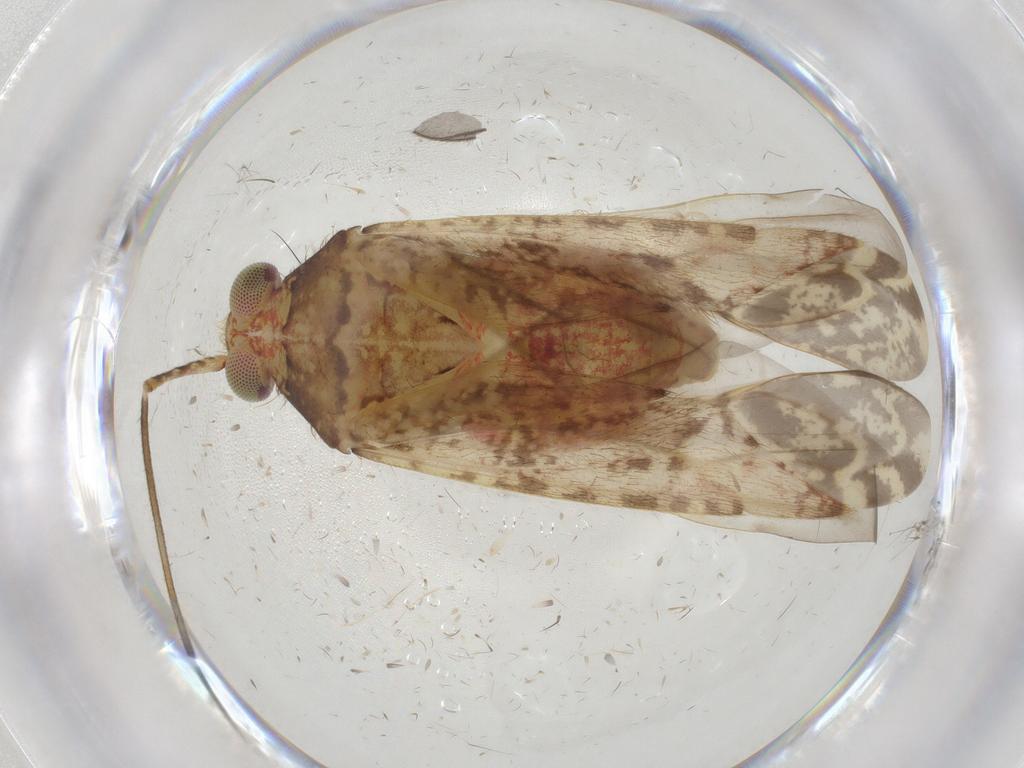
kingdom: Animalia
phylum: Arthropoda
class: Insecta
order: Hemiptera
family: Miridae
